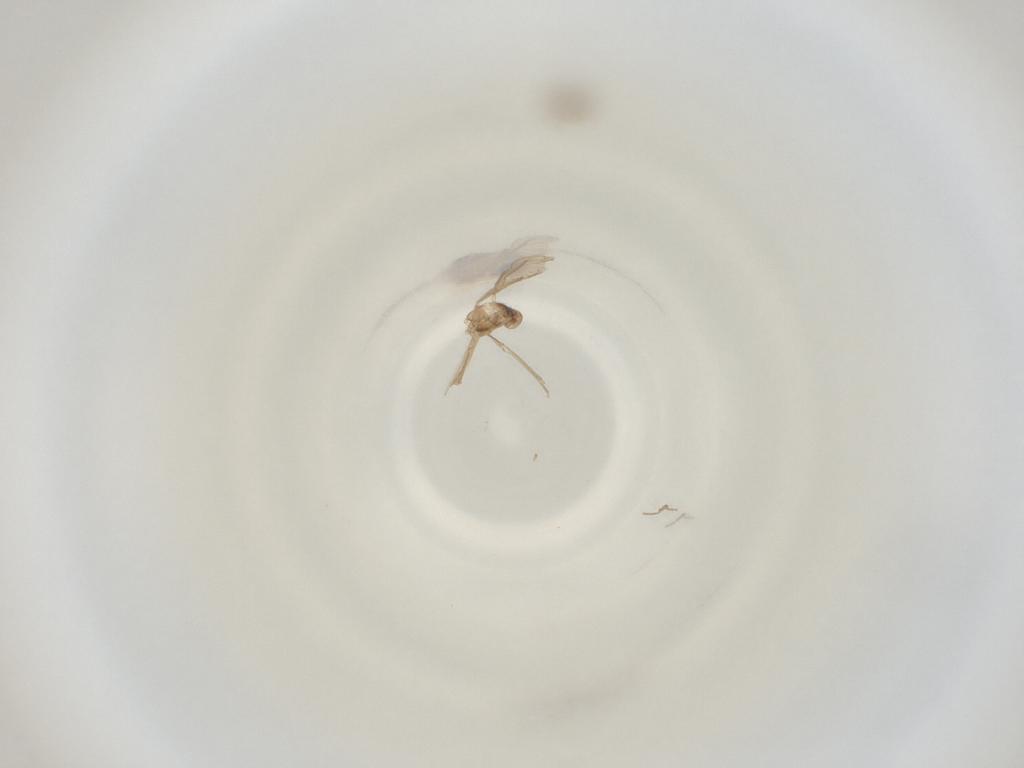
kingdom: Animalia
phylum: Arthropoda
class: Insecta
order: Diptera
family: Cecidomyiidae
